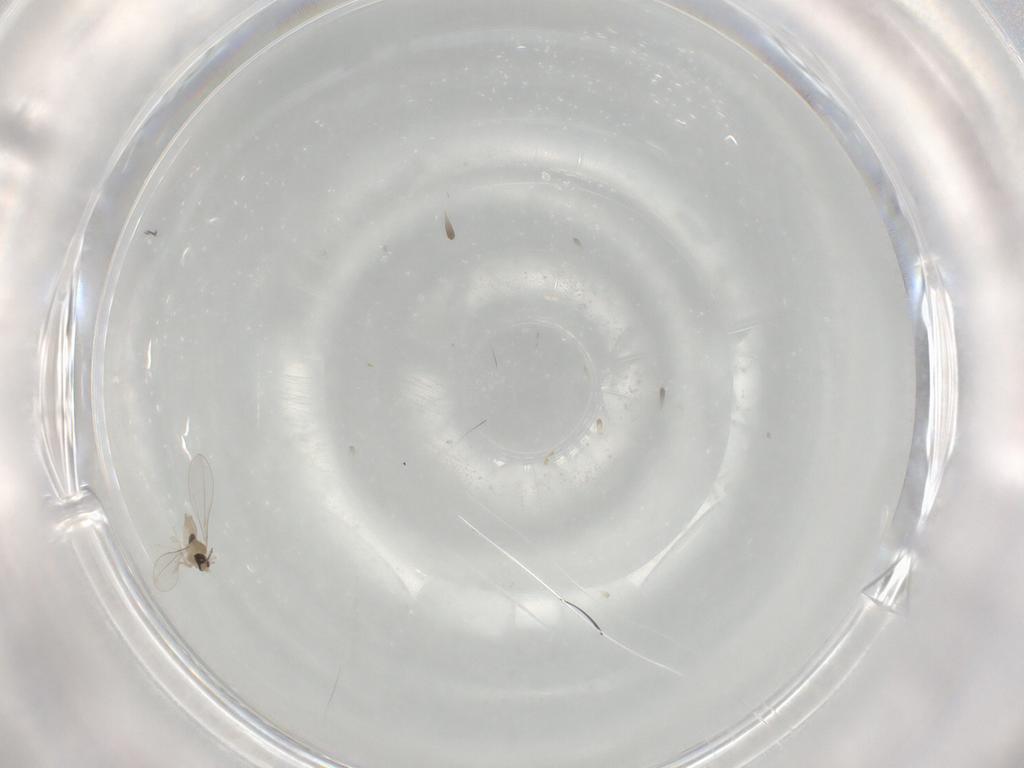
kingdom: Animalia
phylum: Arthropoda
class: Insecta
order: Diptera
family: Phoridae
